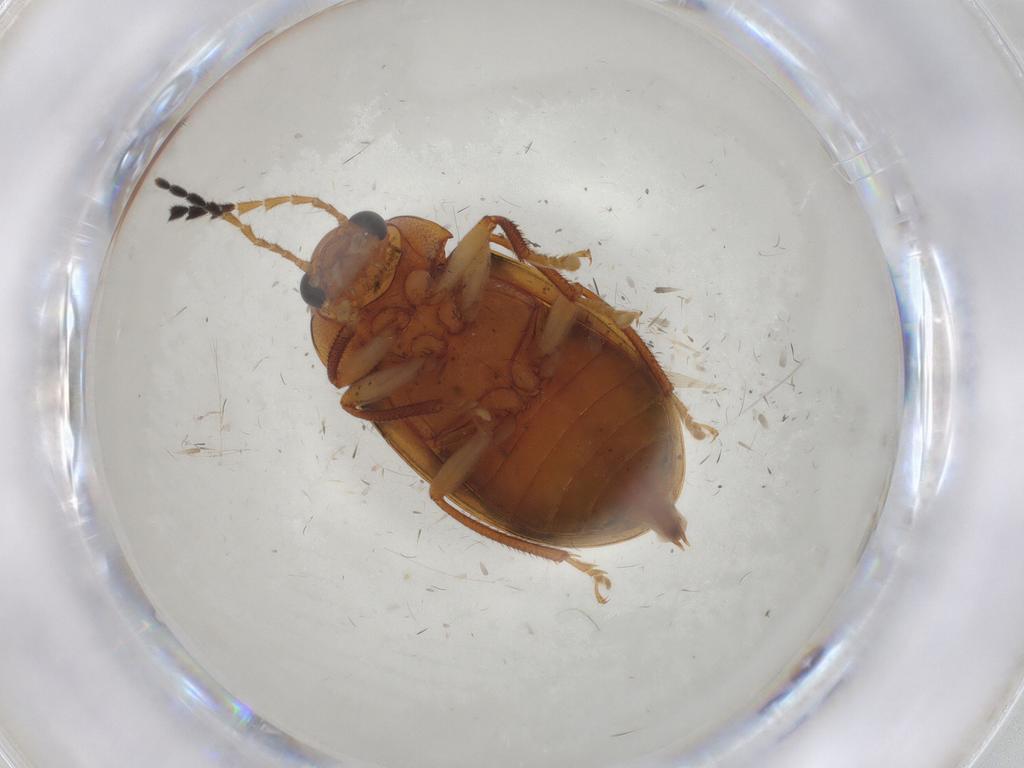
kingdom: Animalia
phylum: Arthropoda
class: Insecta
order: Coleoptera
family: Ptilodactylidae
